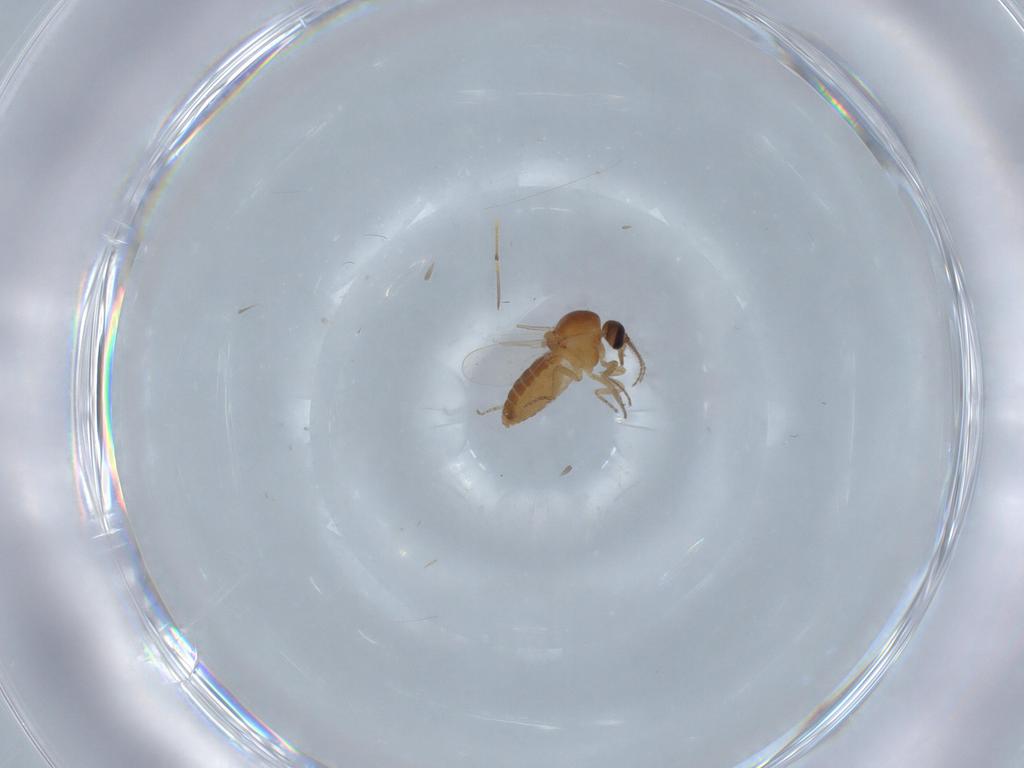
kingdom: Animalia
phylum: Arthropoda
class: Insecta
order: Diptera
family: Ceratopogonidae
